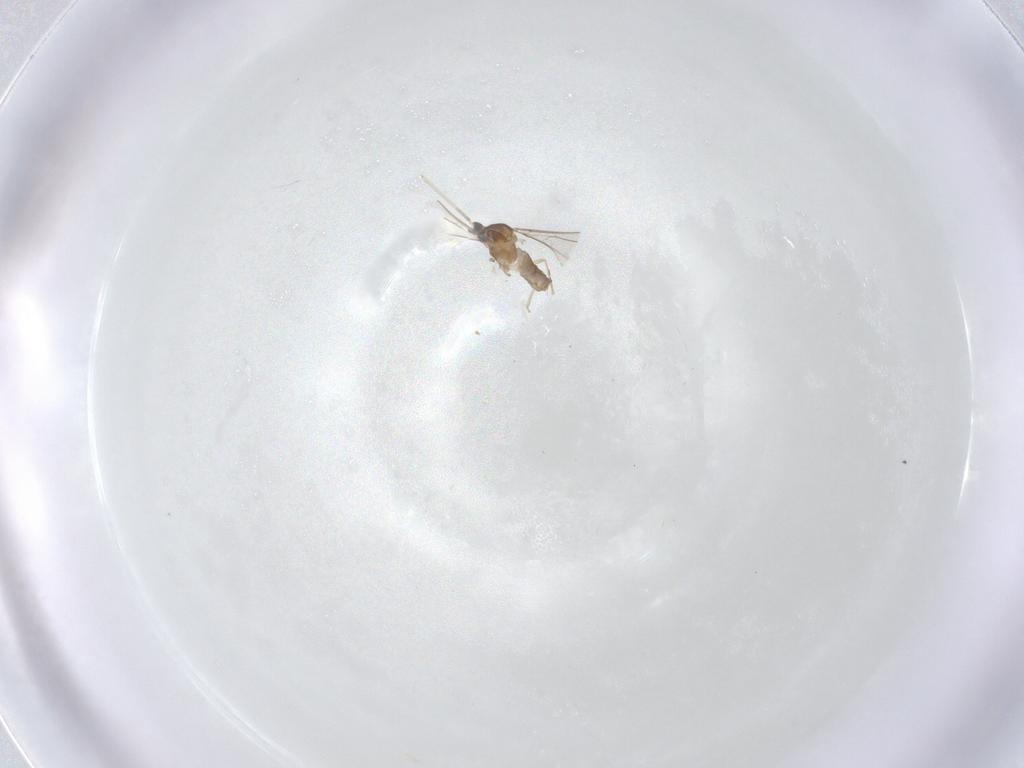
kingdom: Animalia
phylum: Arthropoda
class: Insecta
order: Diptera
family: Cecidomyiidae
